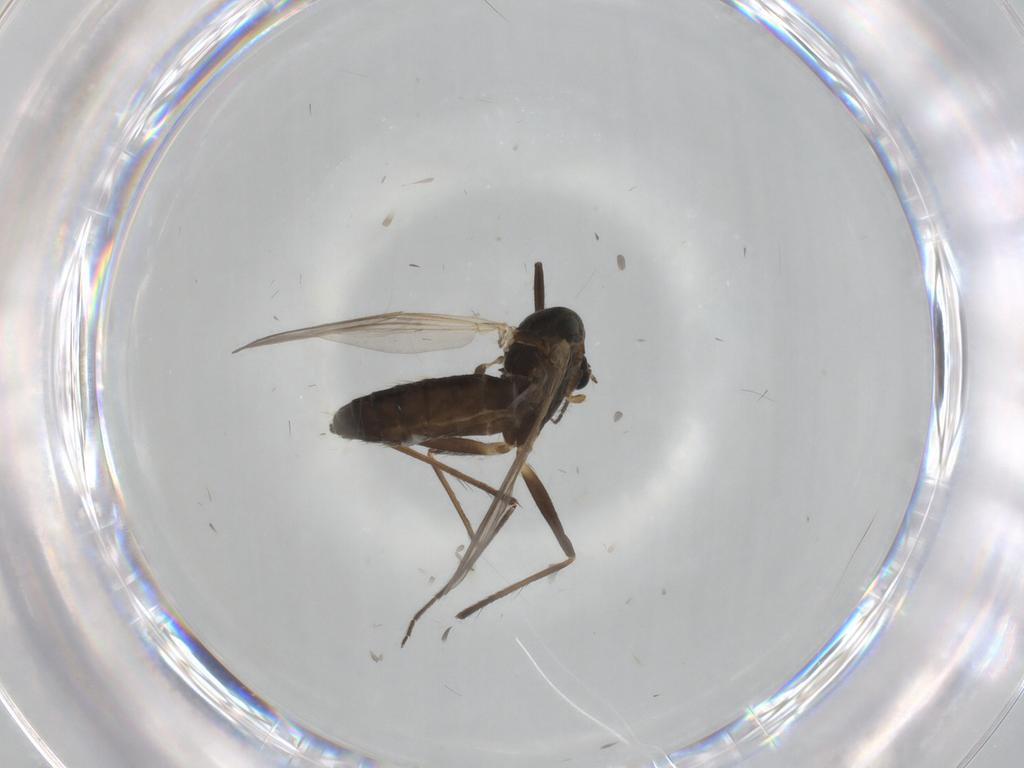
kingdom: Animalia
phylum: Arthropoda
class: Insecta
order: Diptera
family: Chironomidae
